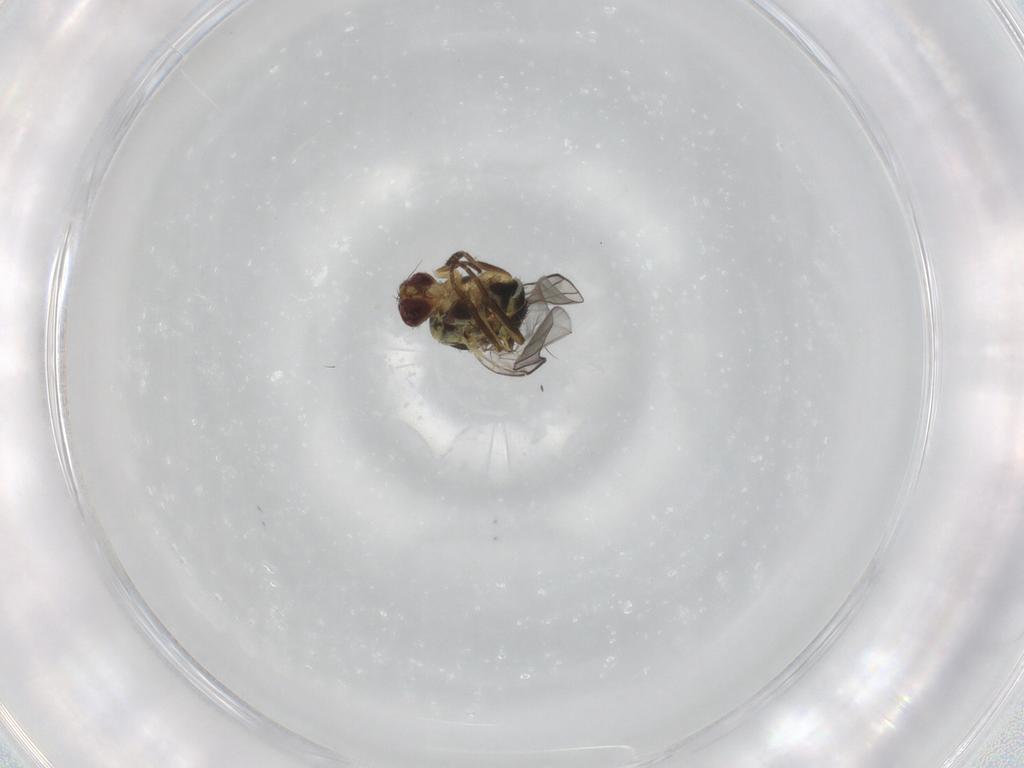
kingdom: Animalia
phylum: Arthropoda
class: Insecta
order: Diptera
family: Agromyzidae
